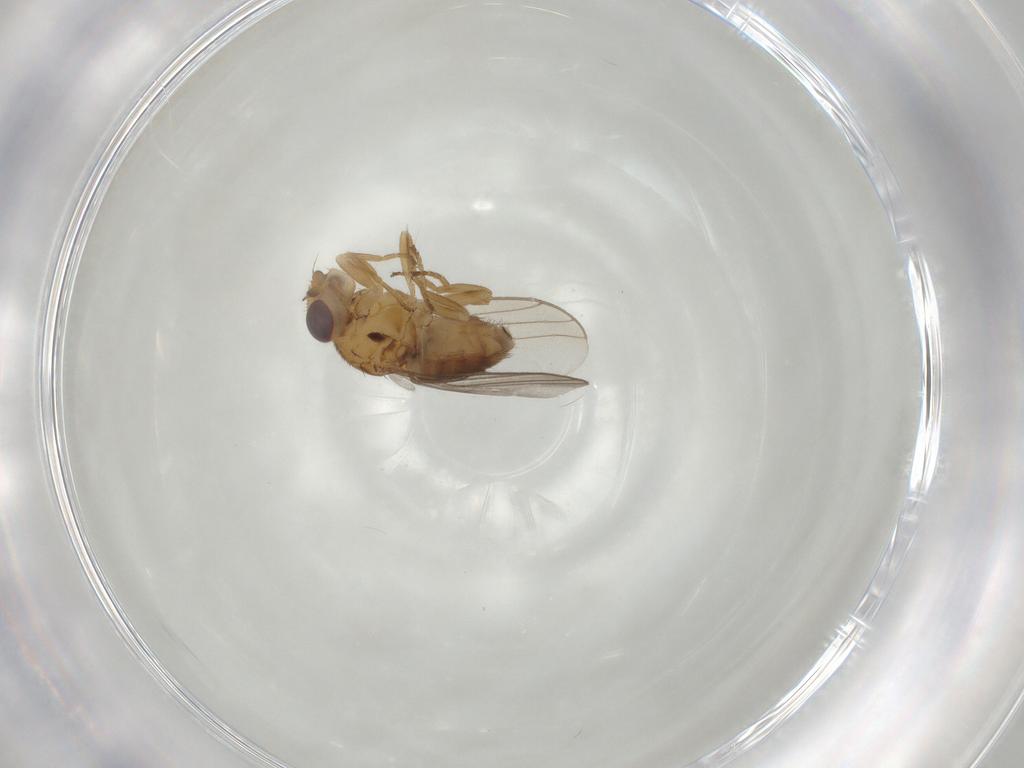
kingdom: Animalia
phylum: Arthropoda
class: Insecta
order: Diptera
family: Chloropidae
